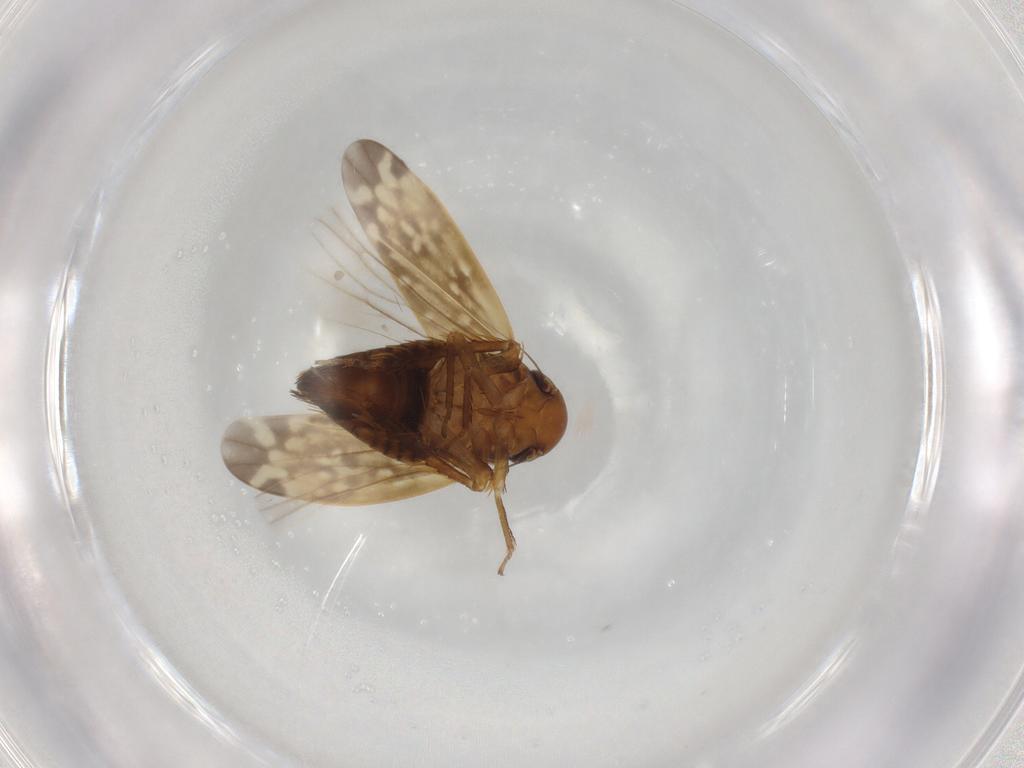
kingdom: Animalia
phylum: Arthropoda
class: Insecta
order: Hemiptera
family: Cicadellidae
